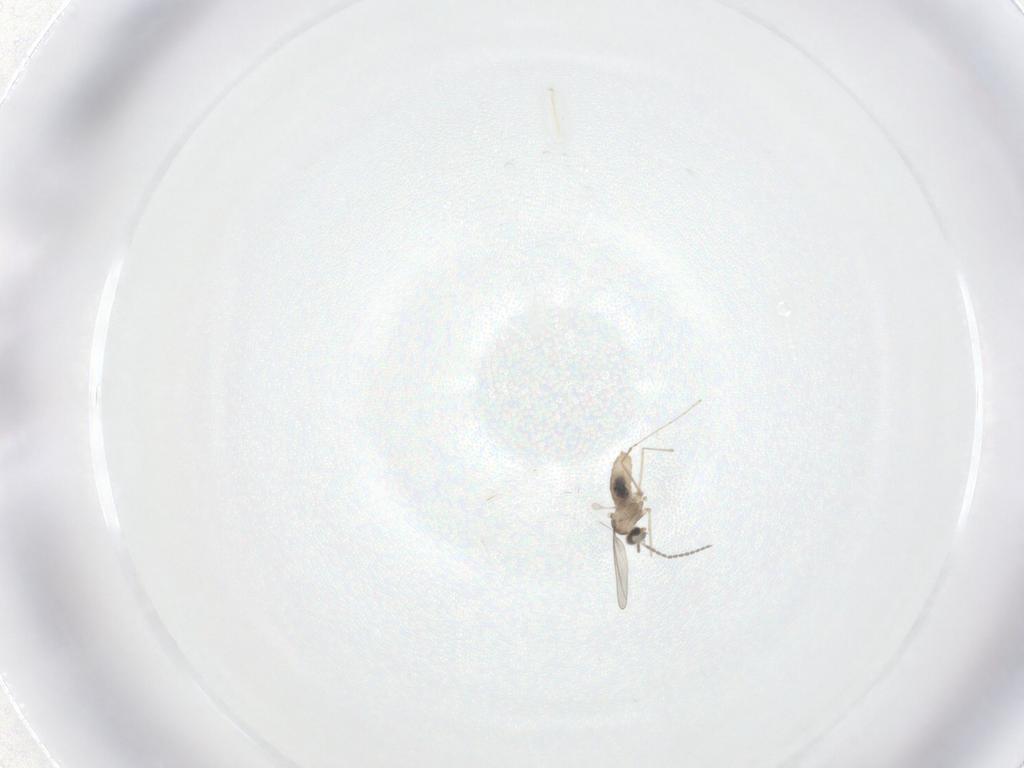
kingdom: Animalia
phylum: Arthropoda
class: Insecta
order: Diptera
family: Cecidomyiidae
